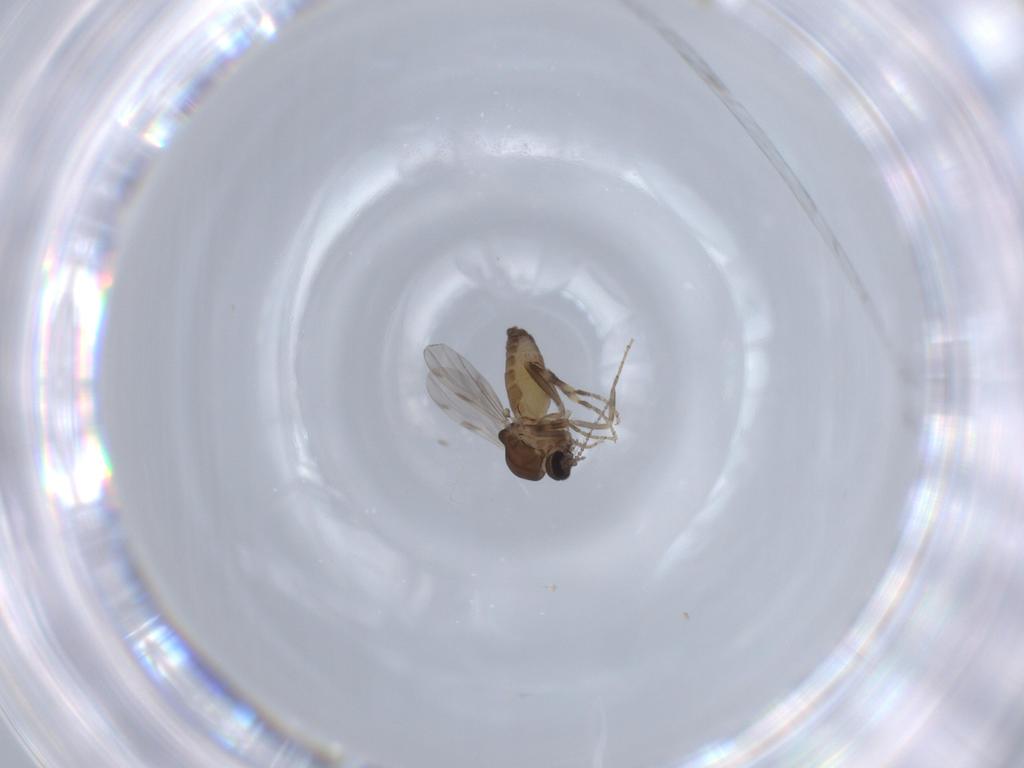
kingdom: Animalia
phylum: Arthropoda
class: Insecta
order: Diptera
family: Ceratopogonidae
